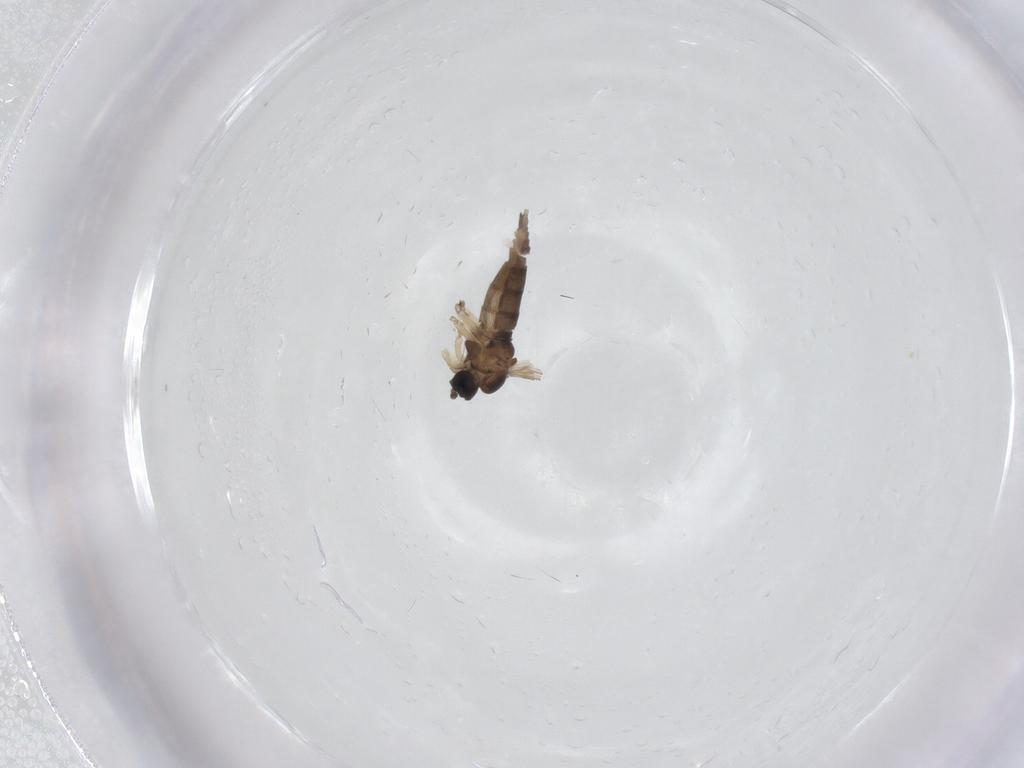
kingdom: Animalia
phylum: Arthropoda
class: Insecta
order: Diptera
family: Sciaridae
